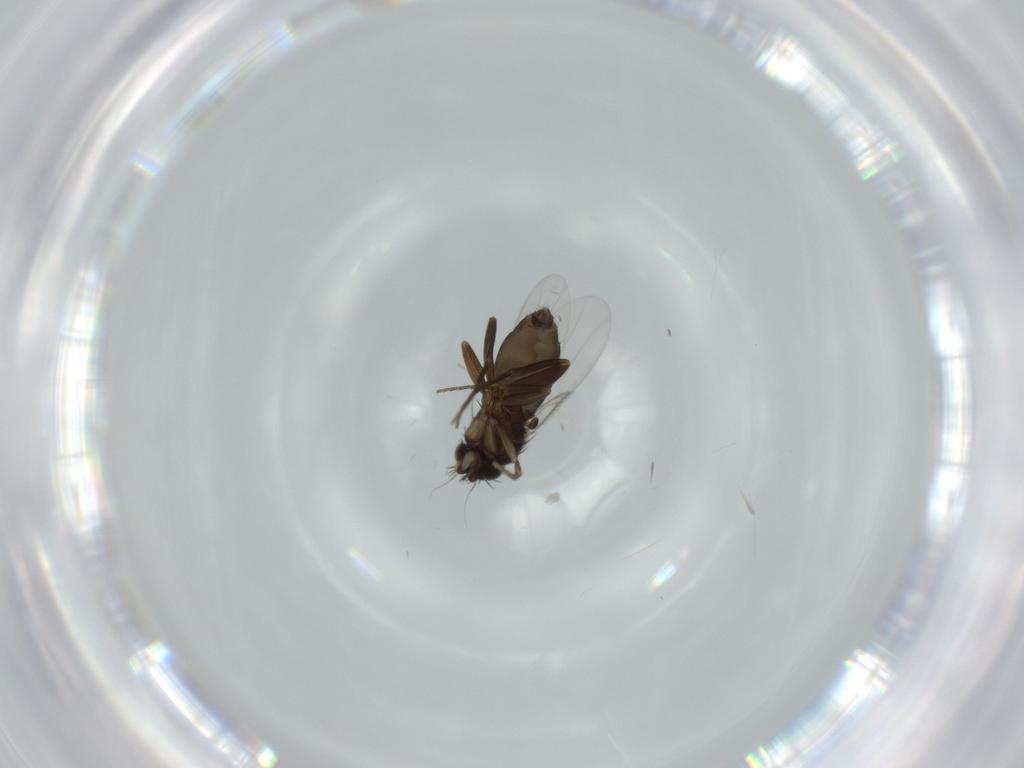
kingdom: Animalia
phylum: Arthropoda
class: Insecta
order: Diptera
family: Phoridae
